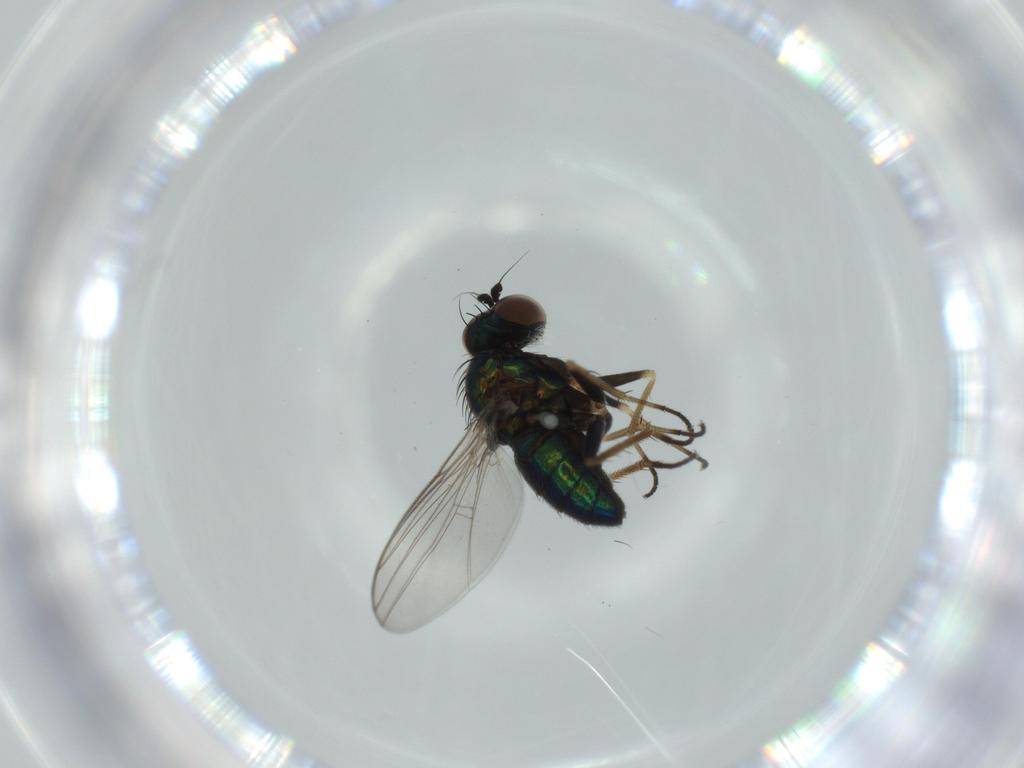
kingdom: Animalia
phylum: Arthropoda
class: Insecta
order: Diptera
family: Dolichopodidae
